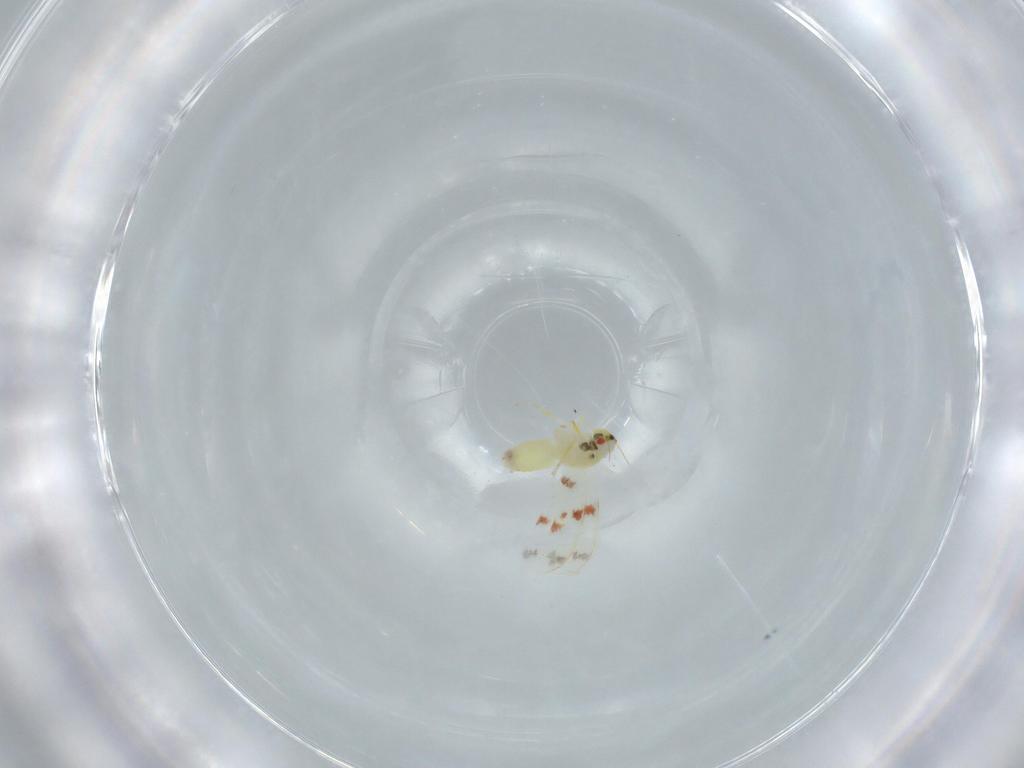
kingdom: Animalia
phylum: Arthropoda
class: Insecta
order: Hemiptera
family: Aleyrodidae
